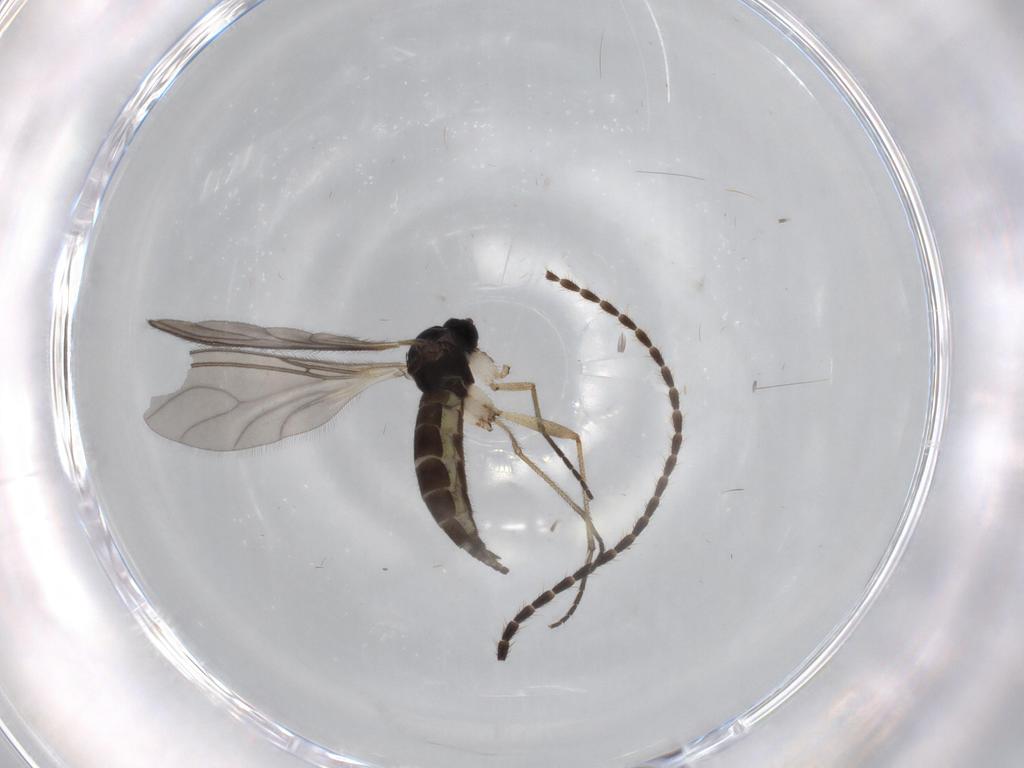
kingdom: Animalia
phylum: Arthropoda
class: Insecta
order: Diptera
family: Sciaridae
